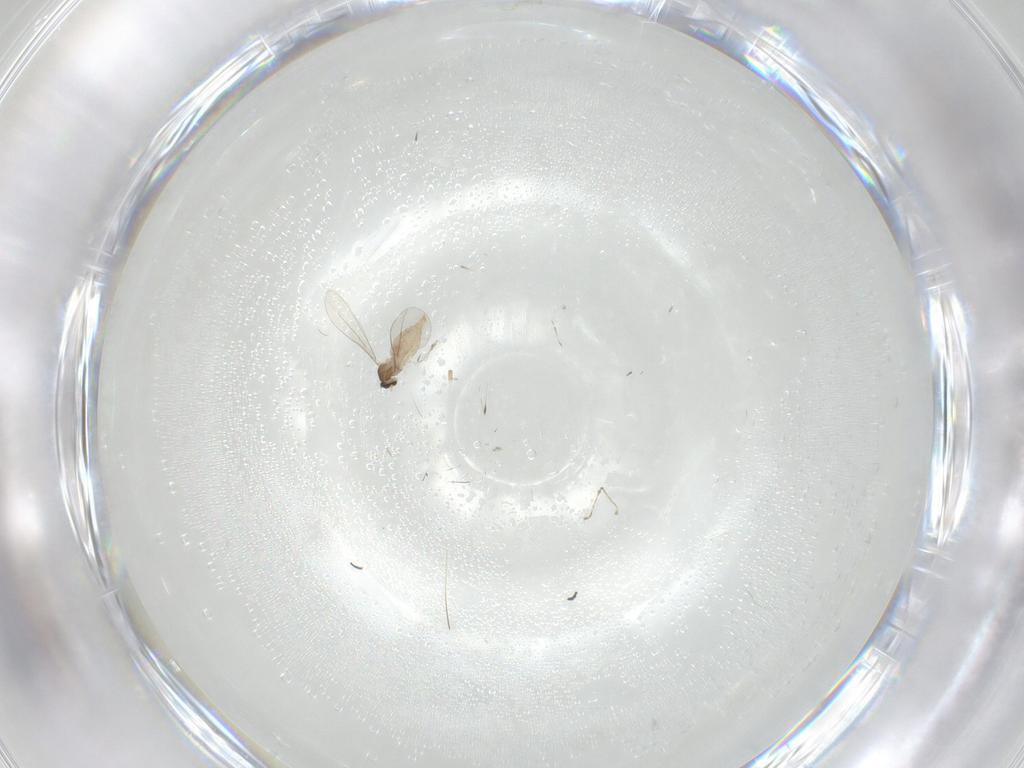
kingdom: Animalia
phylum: Arthropoda
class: Insecta
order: Diptera
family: Cecidomyiidae
